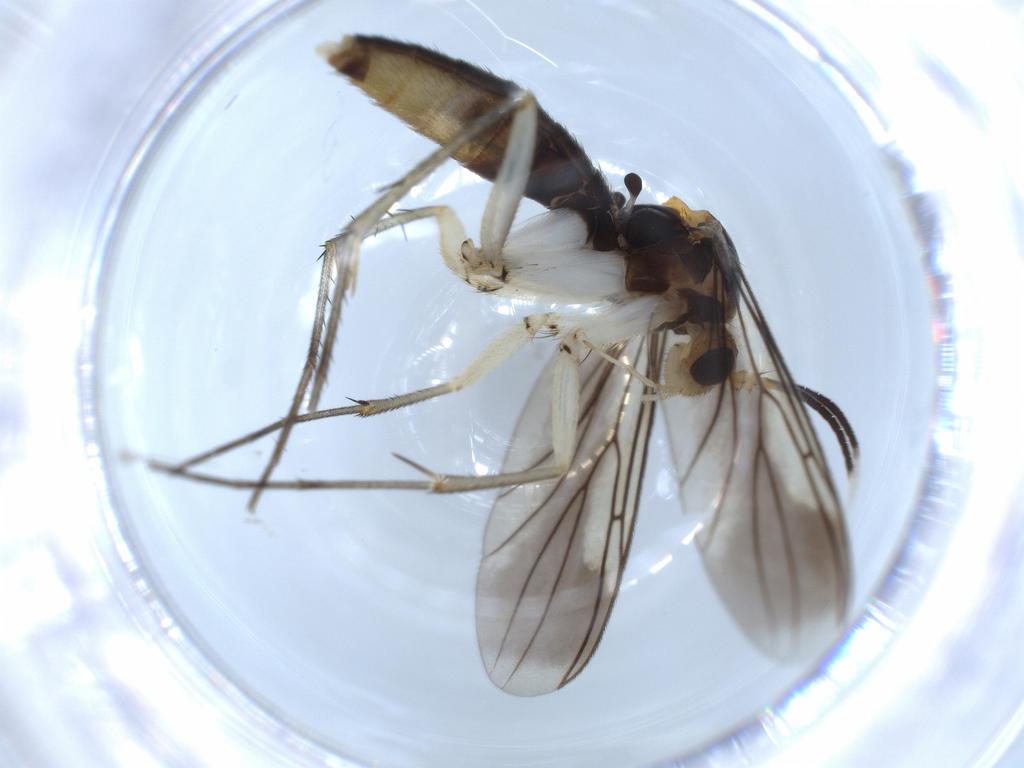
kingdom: Animalia
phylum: Arthropoda
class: Insecta
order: Diptera
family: Mycetophilidae
